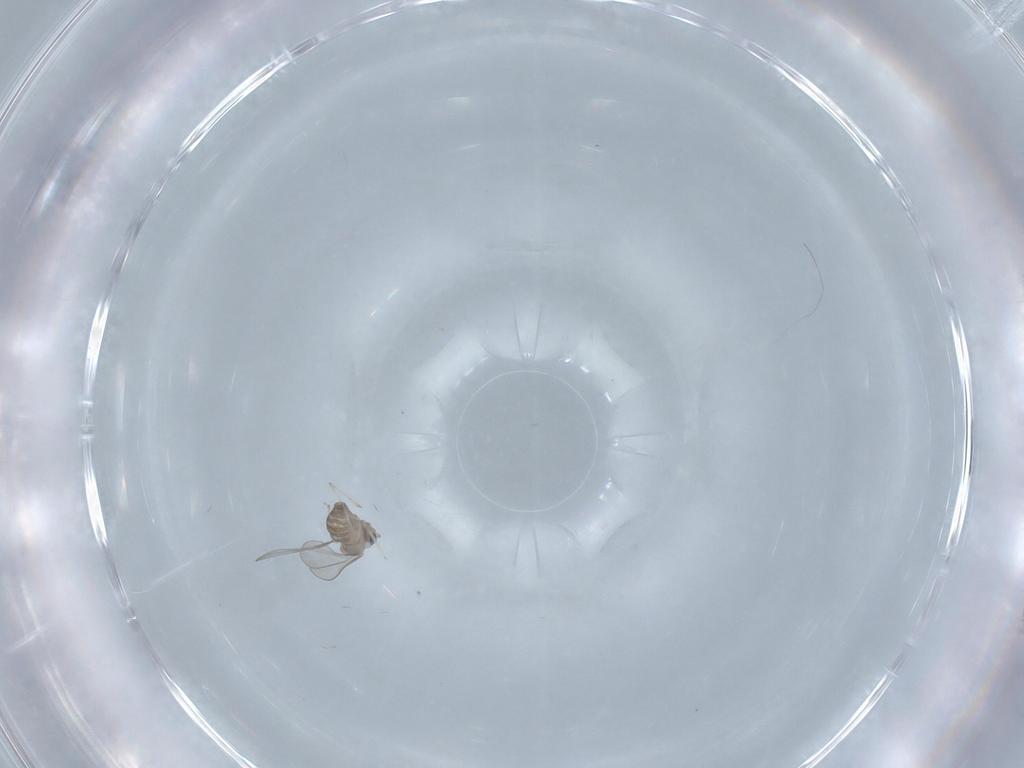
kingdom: Animalia
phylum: Arthropoda
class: Insecta
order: Diptera
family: Cecidomyiidae
